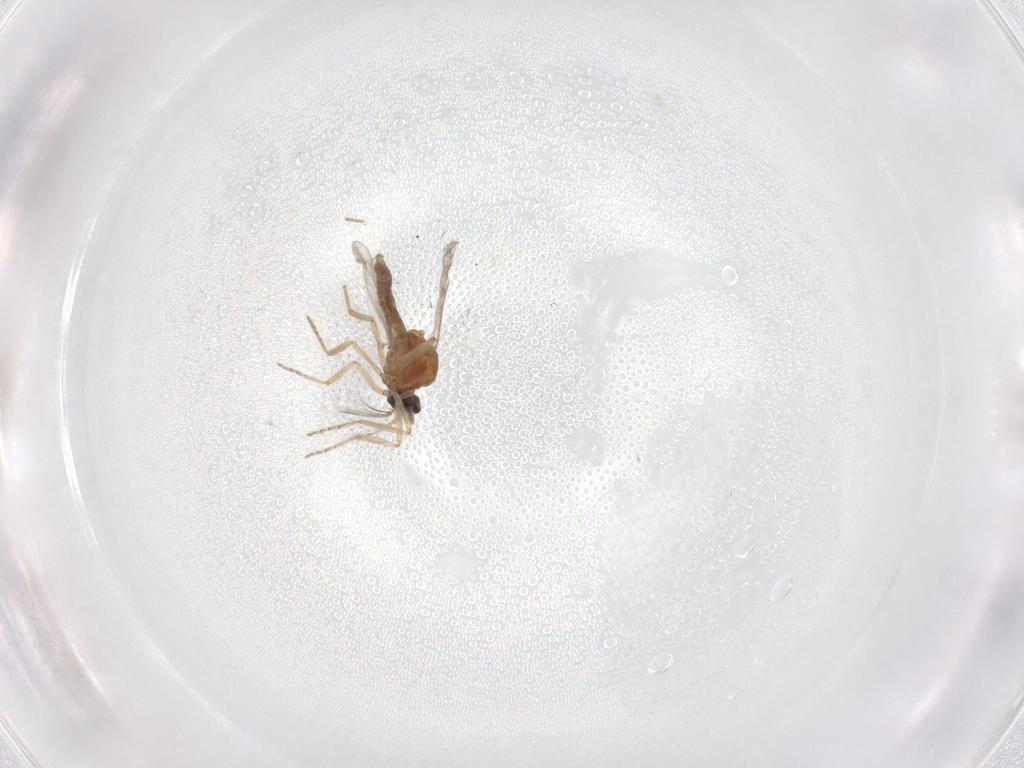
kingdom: Animalia
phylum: Arthropoda
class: Insecta
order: Diptera
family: Ceratopogonidae
